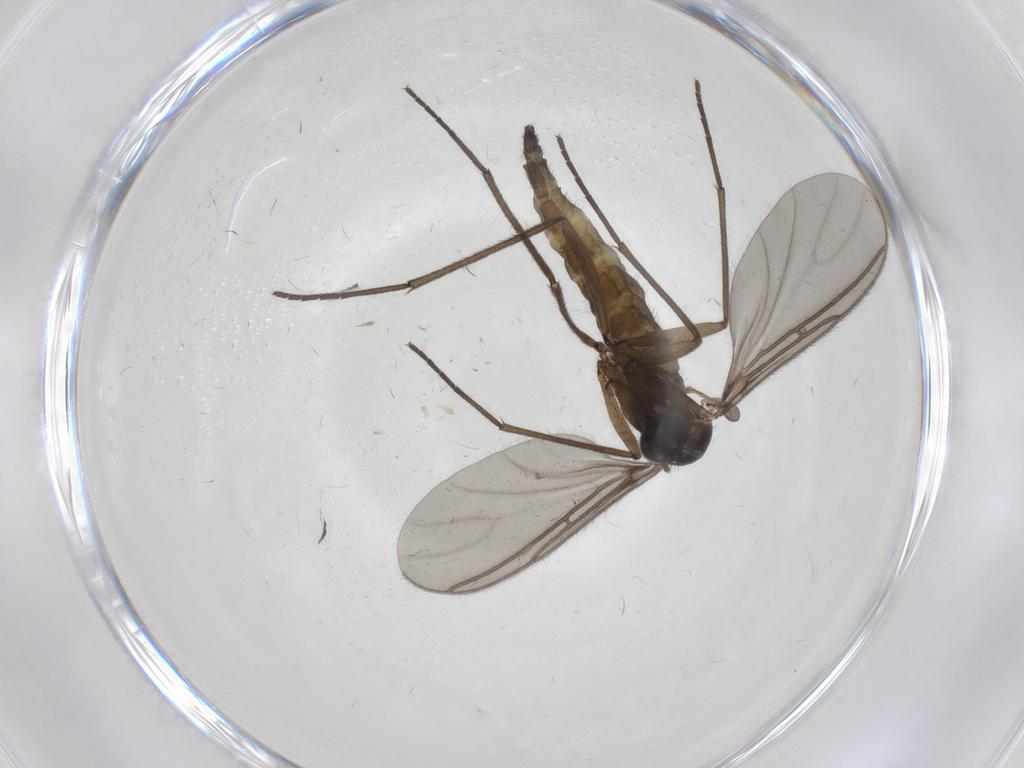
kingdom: Animalia
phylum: Arthropoda
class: Insecta
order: Diptera
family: Sciaridae
